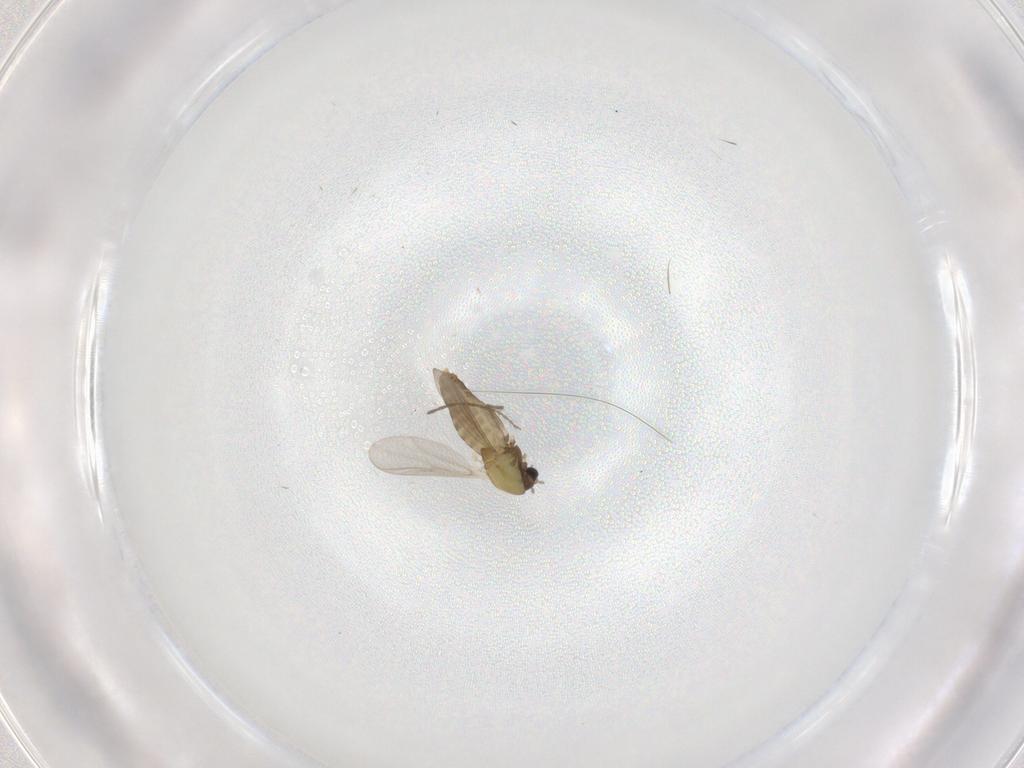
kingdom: Animalia
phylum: Arthropoda
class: Insecta
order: Diptera
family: Chironomidae
